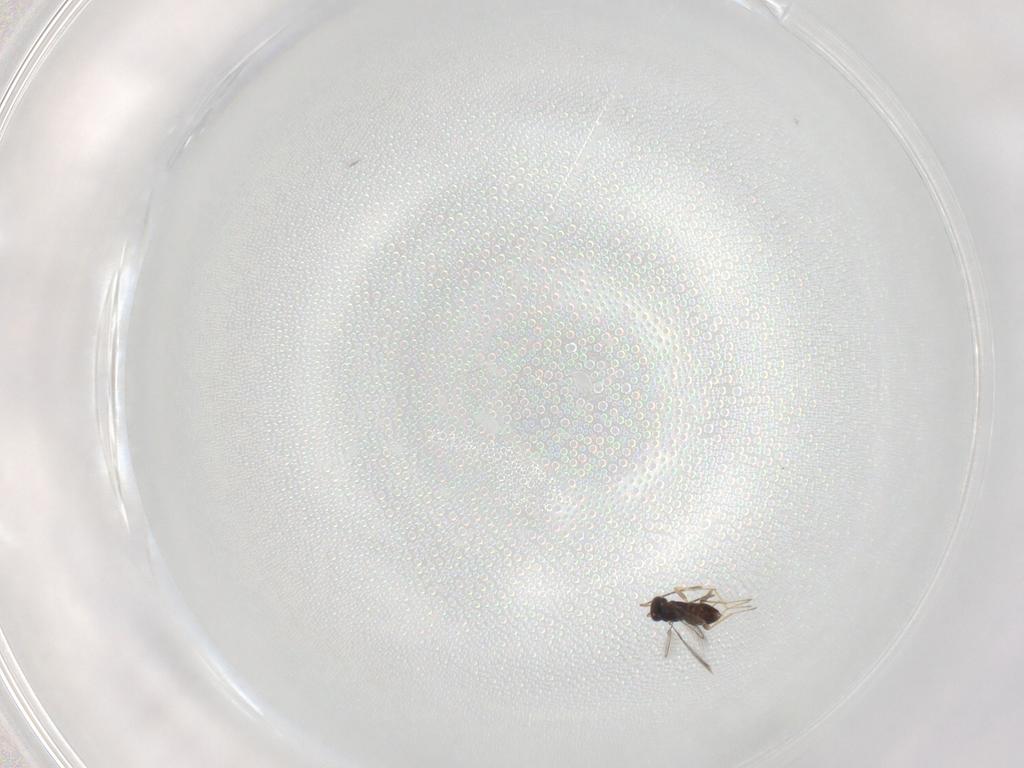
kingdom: Animalia
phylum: Arthropoda
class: Insecta
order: Hymenoptera
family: Mymaridae
